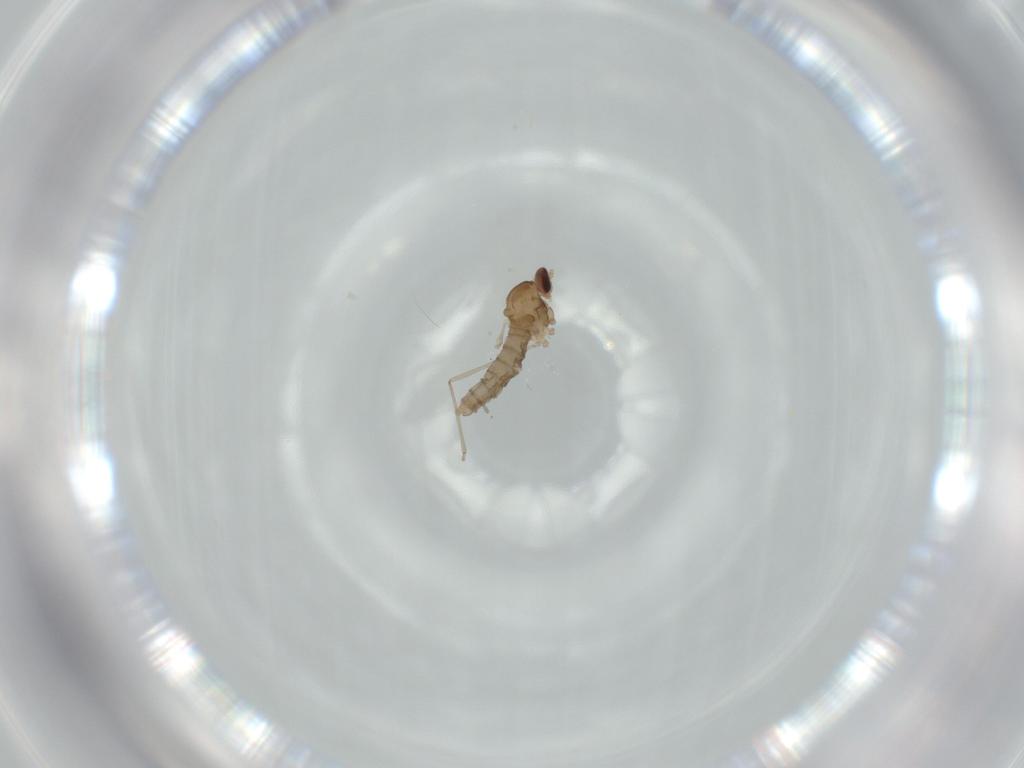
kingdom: Animalia
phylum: Arthropoda
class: Insecta
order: Diptera
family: Cecidomyiidae
